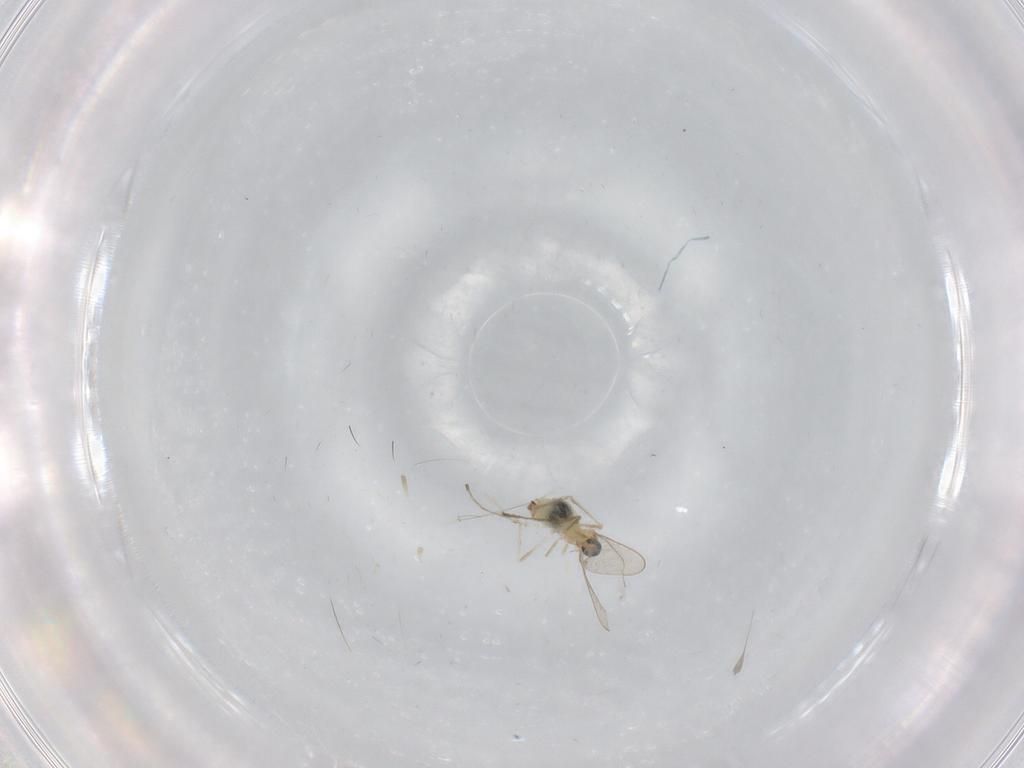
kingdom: Animalia
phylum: Arthropoda
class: Insecta
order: Diptera
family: Cecidomyiidae
